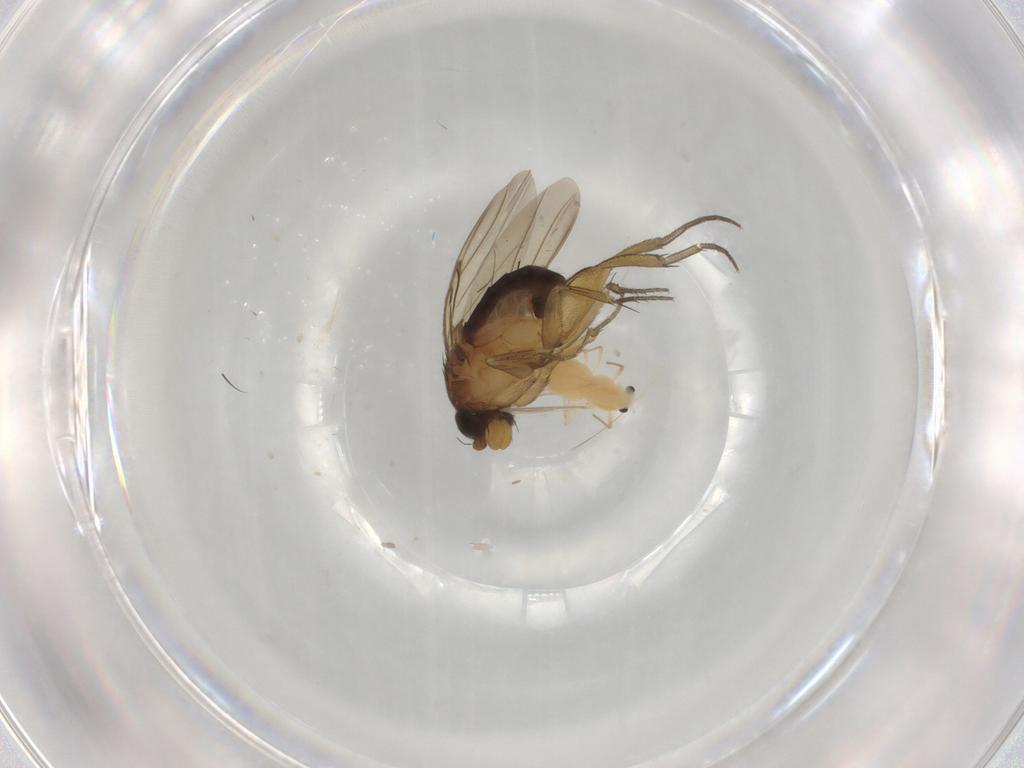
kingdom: Animalia
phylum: Arthropoda
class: Insecta
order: Diptera
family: Phoridae
